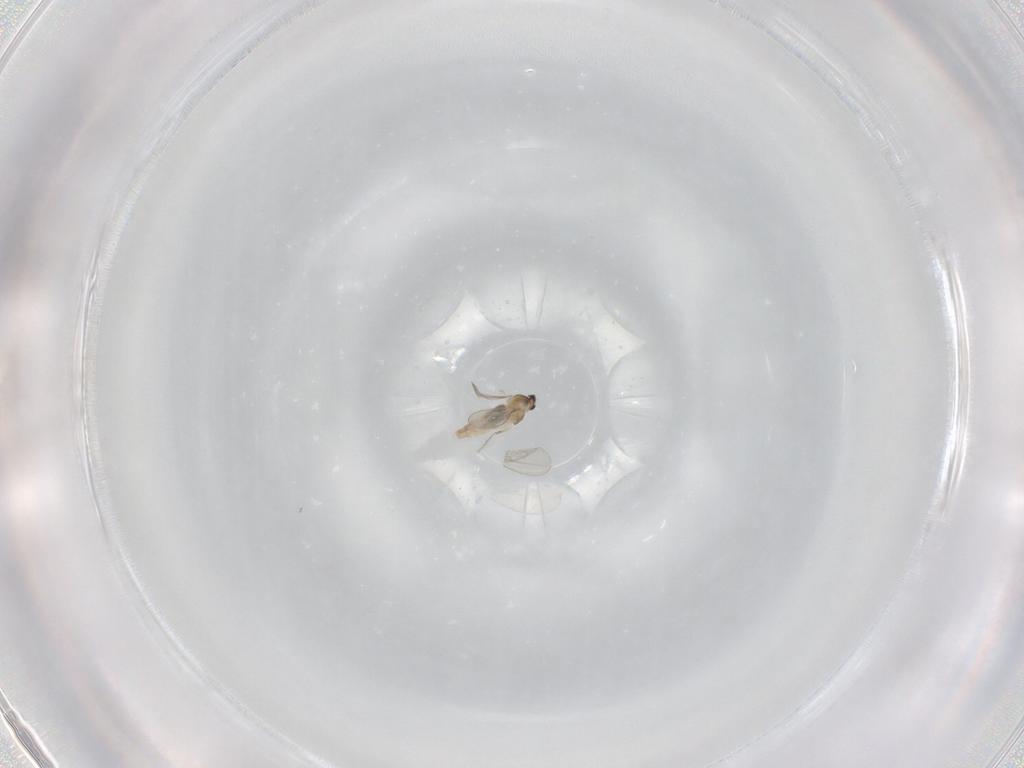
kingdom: Animalia
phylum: Arthropoda
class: Insecta
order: Diptera
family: Cecidomyiidae
